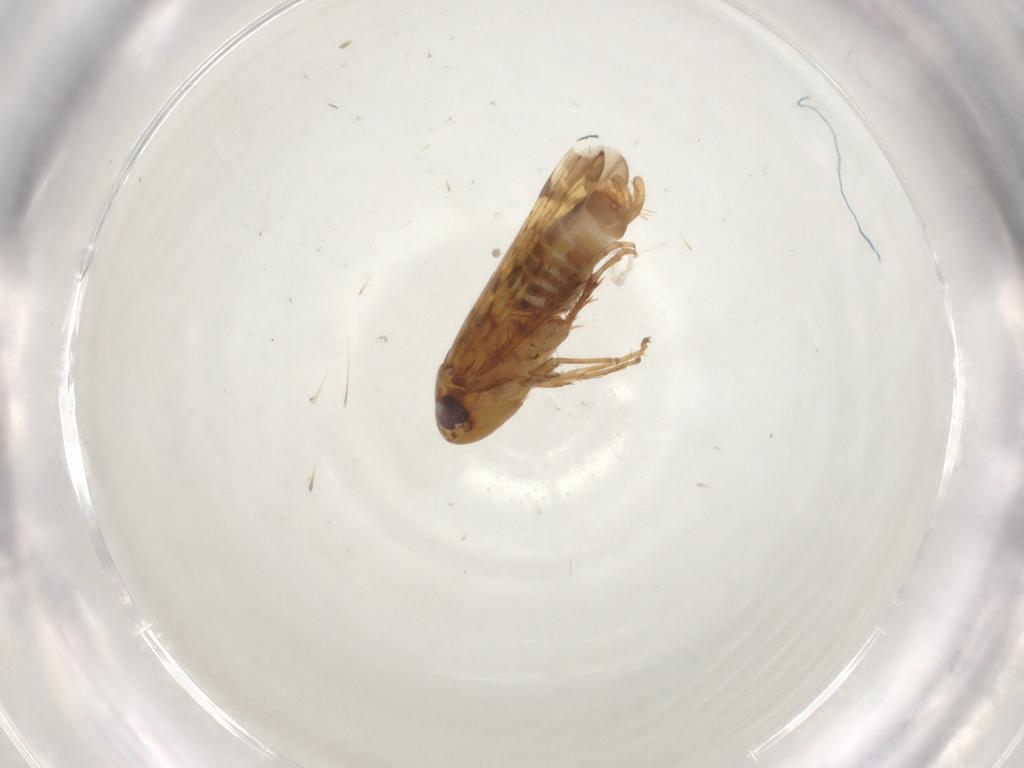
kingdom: Animalia
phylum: Arthropoda
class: Insecta
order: Hemiptera
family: Cicadellidae
